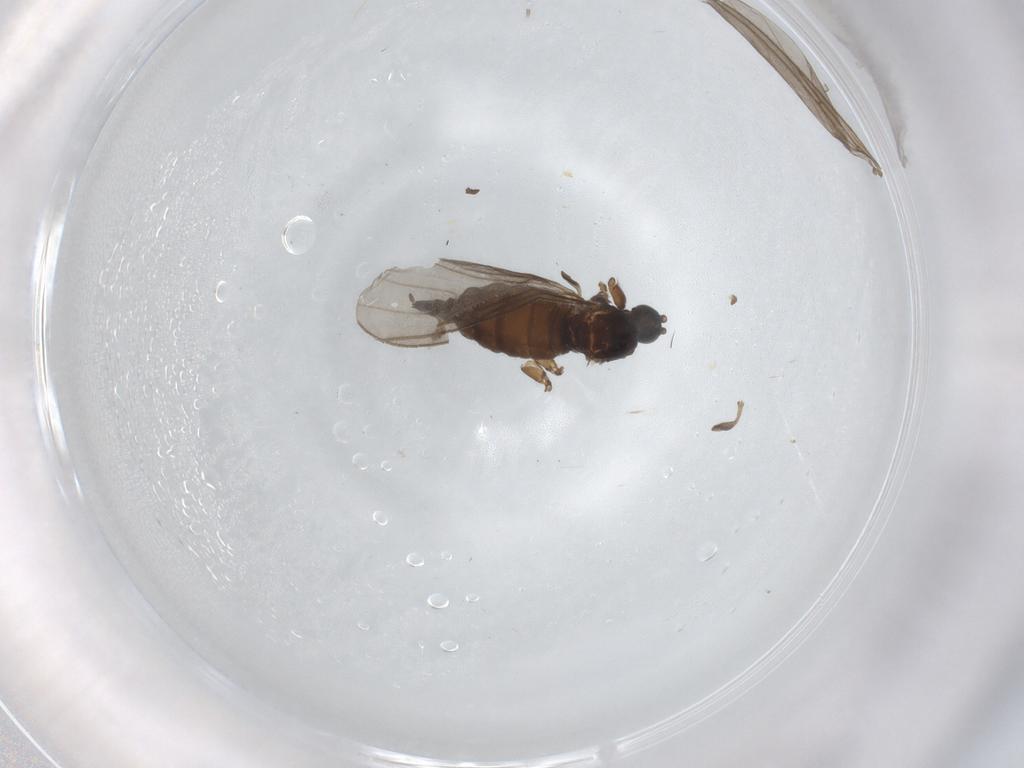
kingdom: Animalia
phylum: Arthropoda
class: Insecta
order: Diptera
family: Sciaridae
